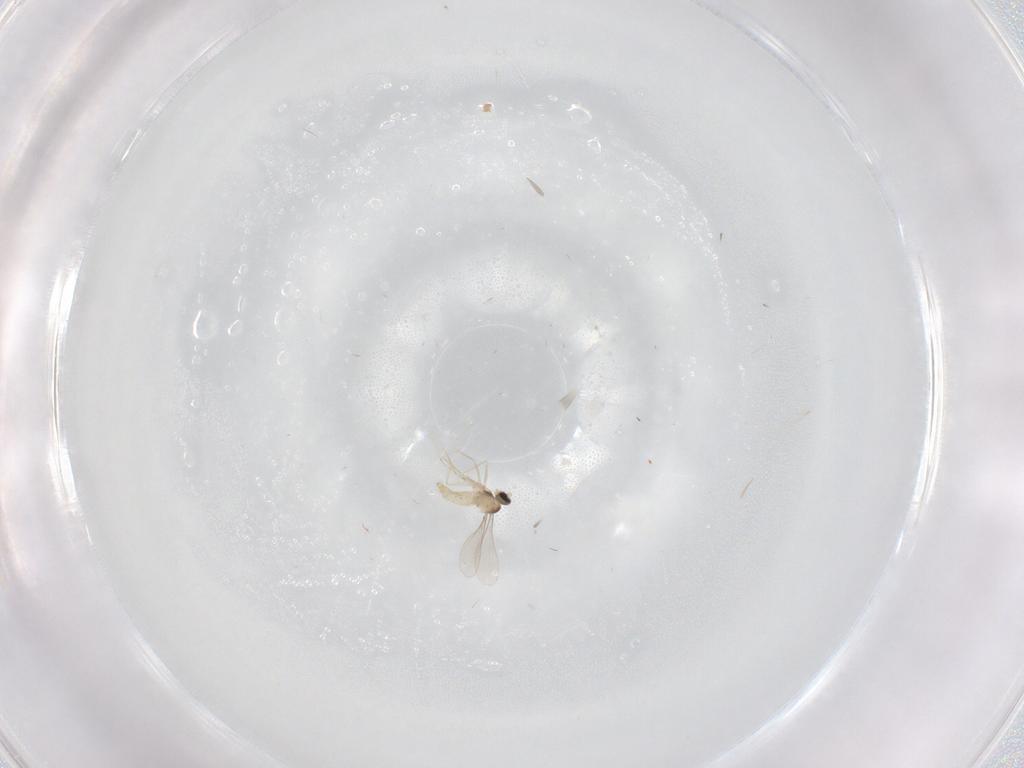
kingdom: Animalia
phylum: Arthropoda
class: Insecta
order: Diptera
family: Cecidomyiidae
